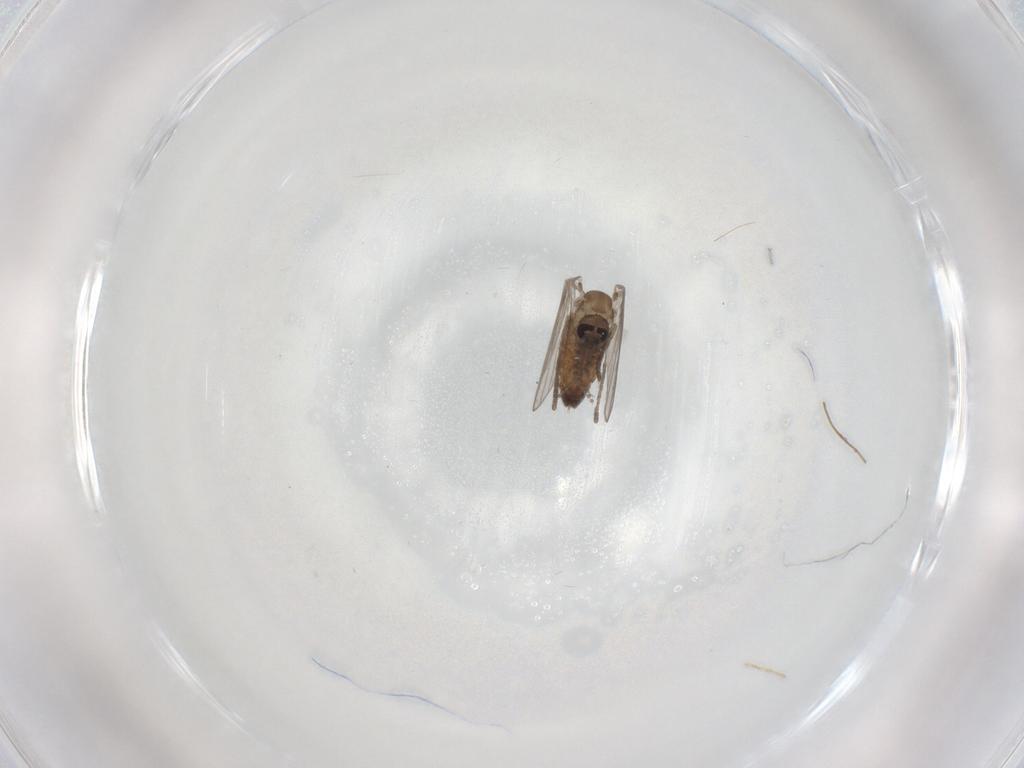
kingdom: Animalia
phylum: Arthropoda
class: Insecta
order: Diptera
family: Psychodidae
